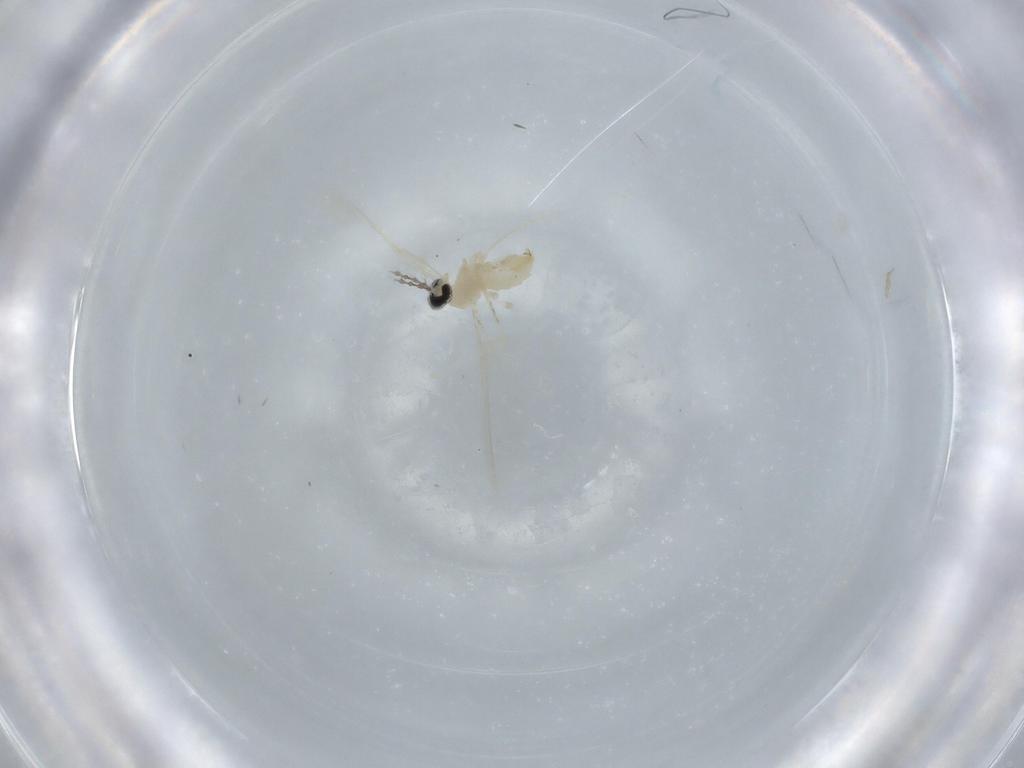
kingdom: Animalia
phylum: Arthropoda
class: Insecta
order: Diptera
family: Cecidomyiidae
